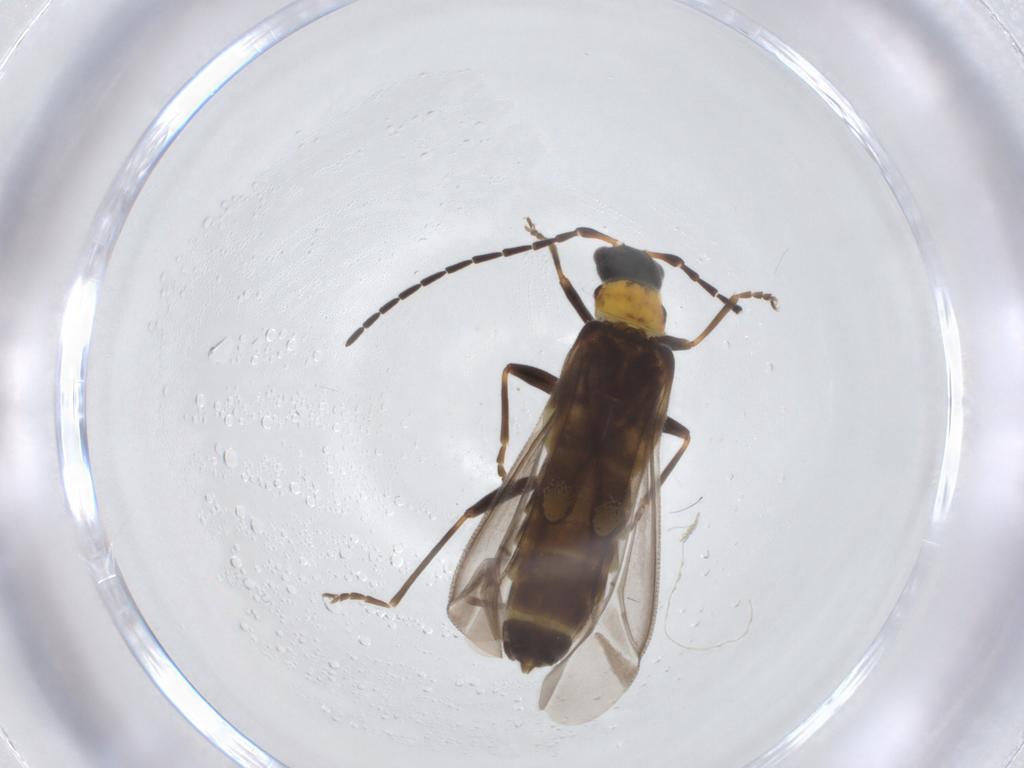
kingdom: Animalia
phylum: Arthropoda
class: Insecta
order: Coleoptera
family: Cantharidae
